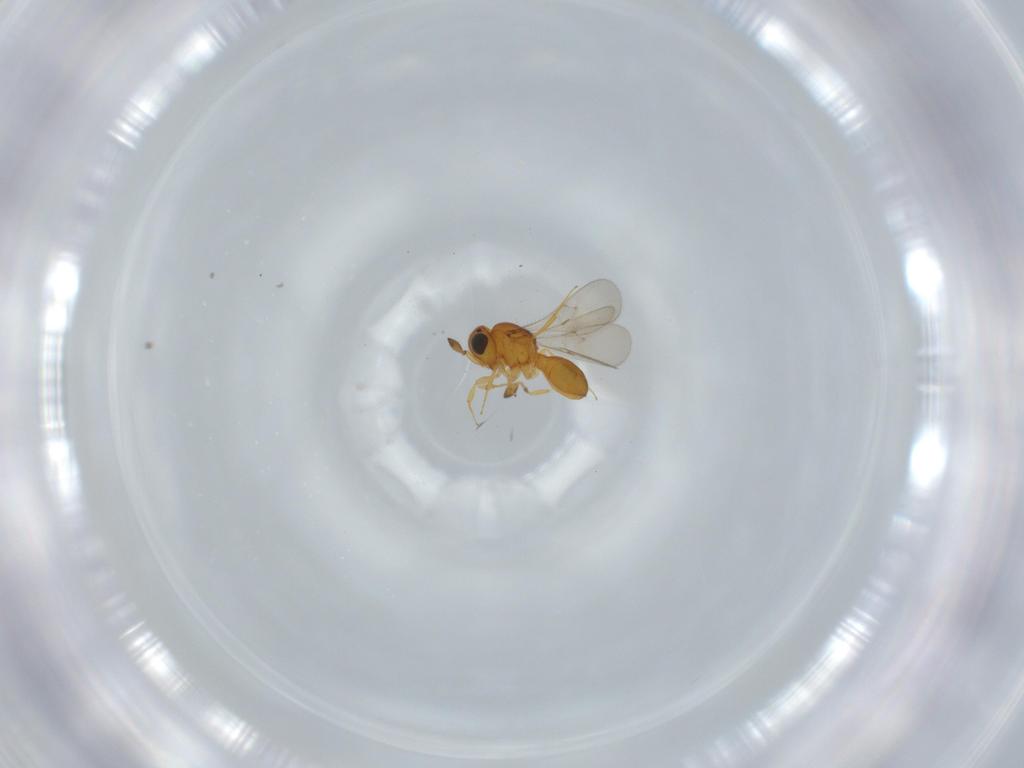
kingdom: Animalia
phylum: Arthropoda
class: Insecta
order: Hymenoptera
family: Scelionidae
